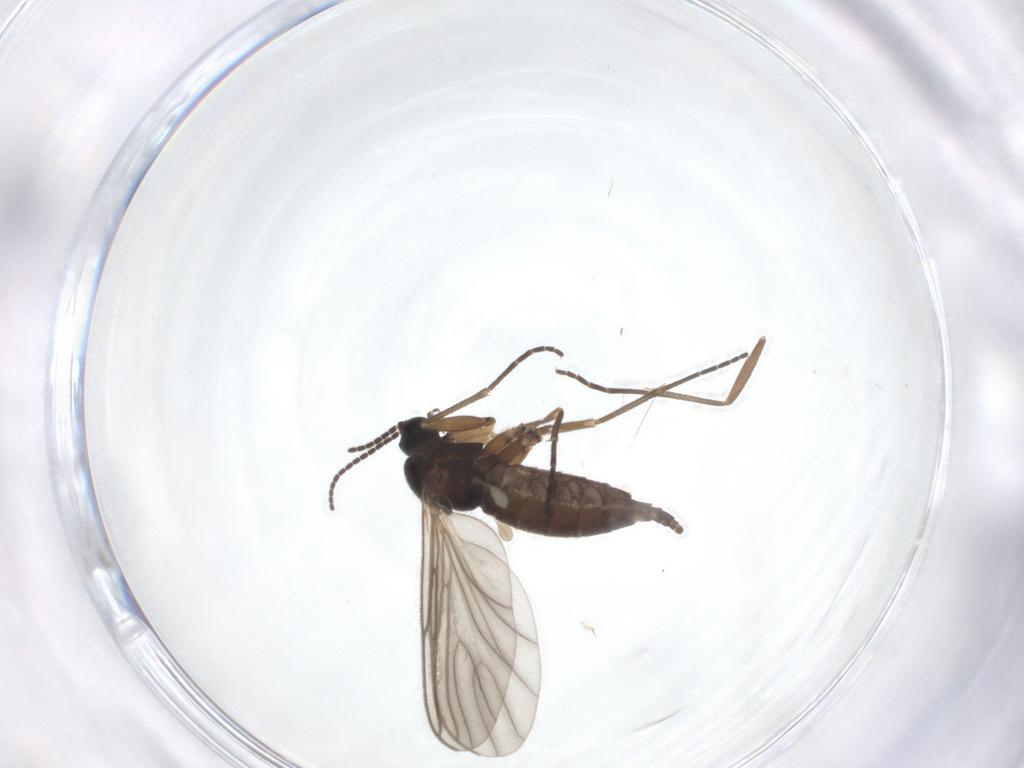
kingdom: Animalia
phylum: Arthropoda
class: Insecta
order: Diptera
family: Sciaridae
